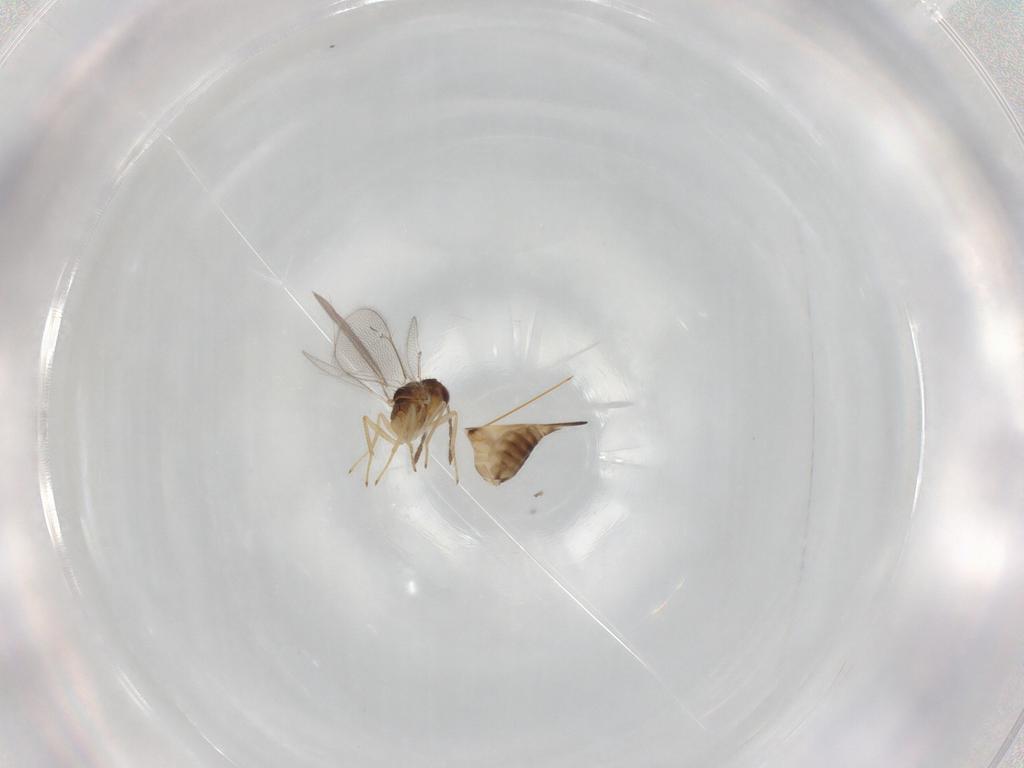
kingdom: Animalia
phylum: Arthropoda
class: Insecta
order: Hymenoptera
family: Eulophidae
